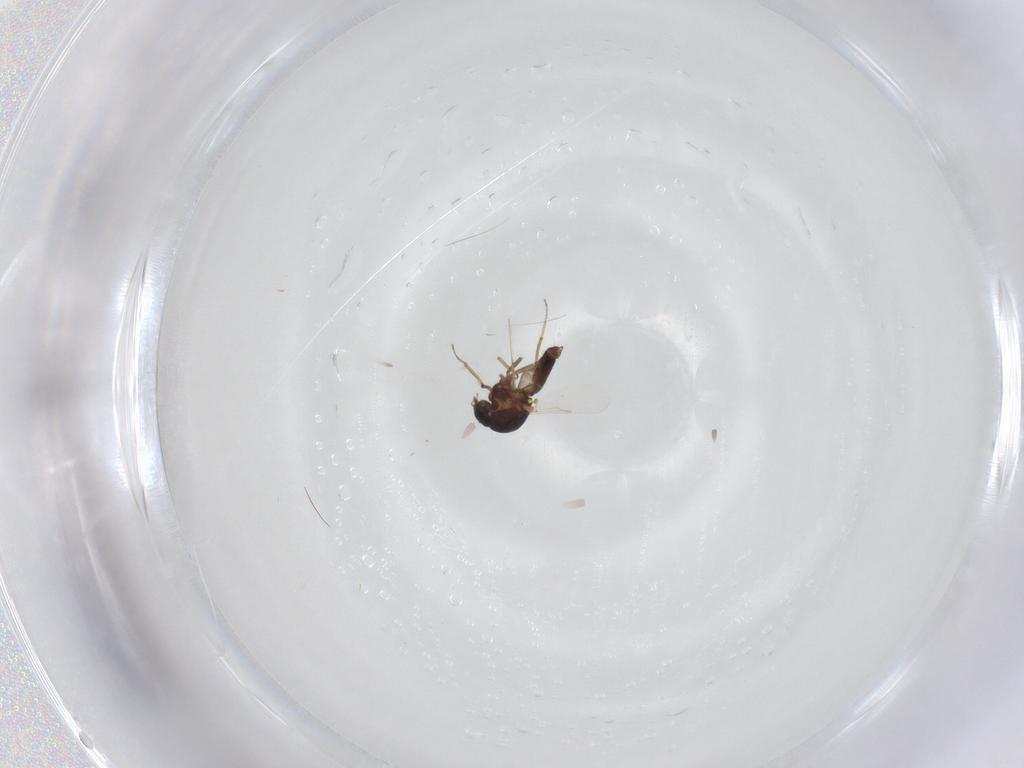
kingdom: Animalia
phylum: Arthropoda
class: Insecta
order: Diptera
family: Ceratopogonidae
